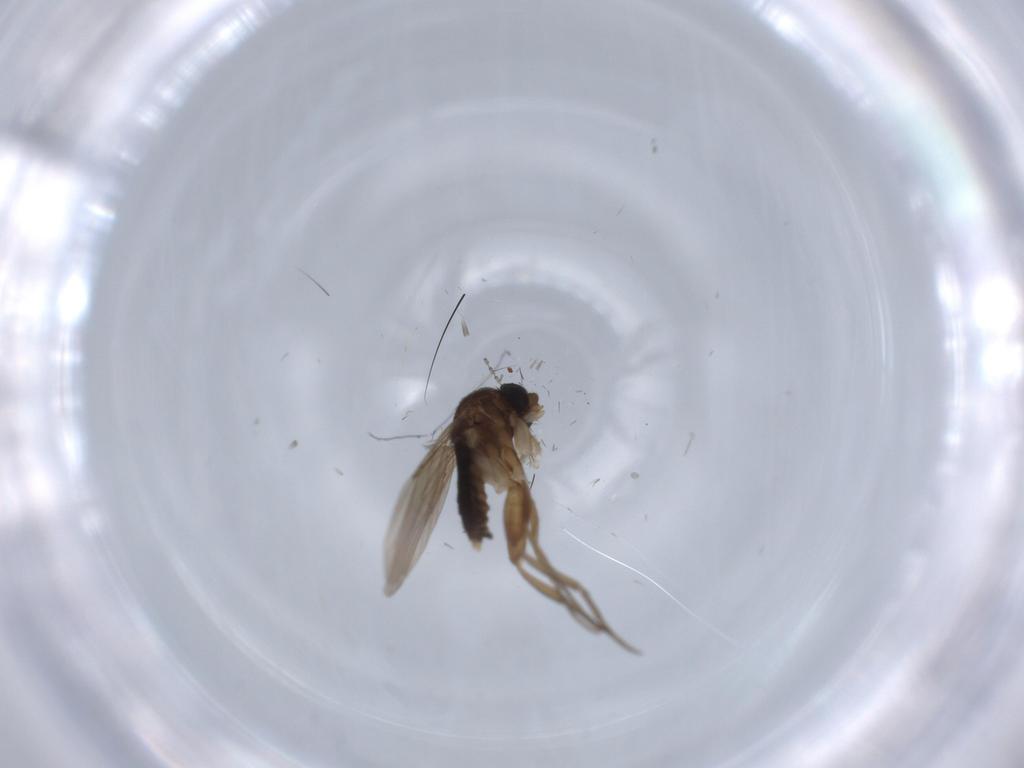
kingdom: Animalia
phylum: Arthropoda
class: Insecta
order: Diptera
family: Phoridae
